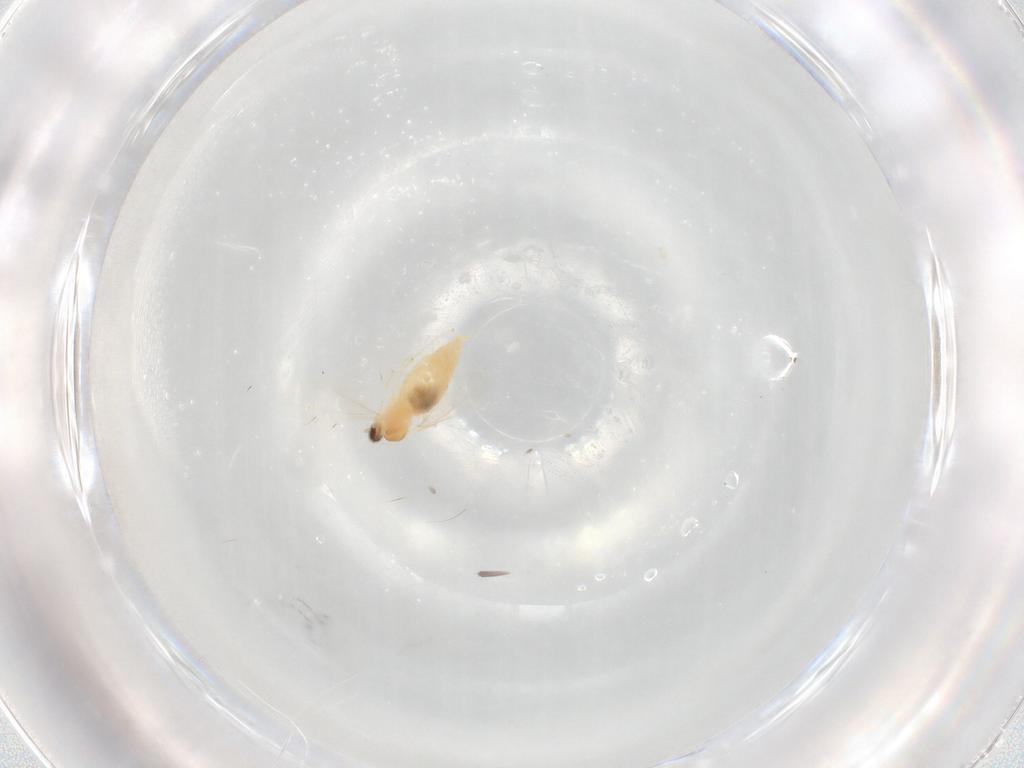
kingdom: Animalia
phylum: Arthropoda
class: Insecta
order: Diptera
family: Cecidomyiidae
